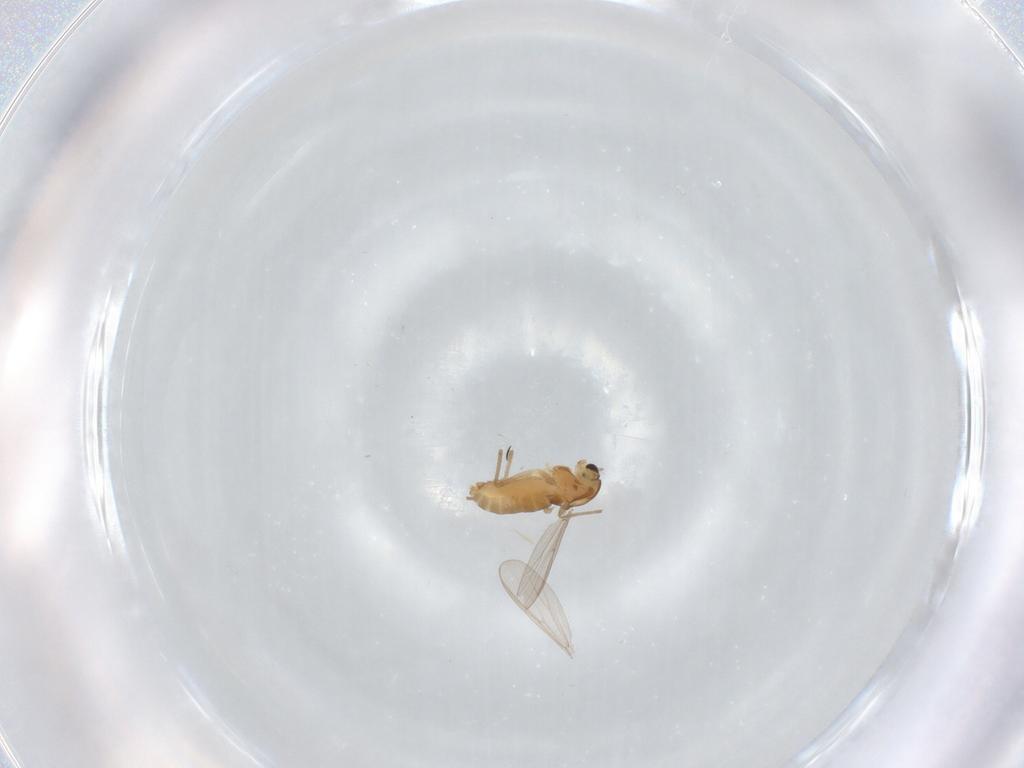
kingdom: Animalia
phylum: Arthropoda
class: Insecta
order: Diptera
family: Chironomidae
